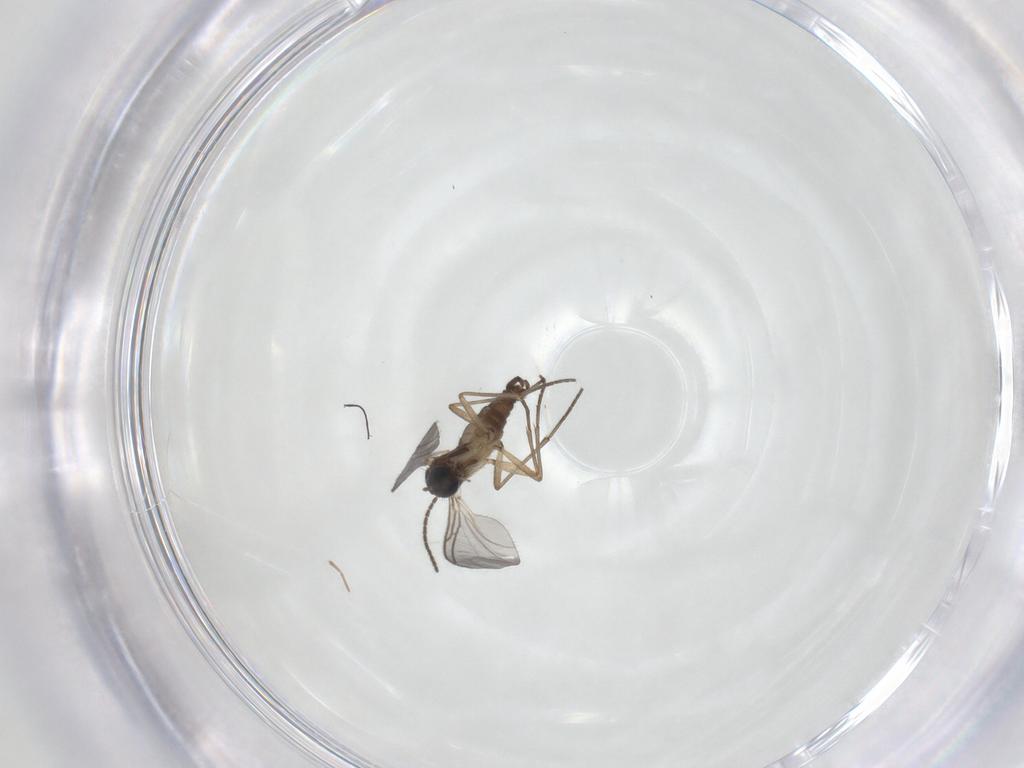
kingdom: Animalia
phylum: Arthropoda
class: Insecta
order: Diptera
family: Sciaridae
